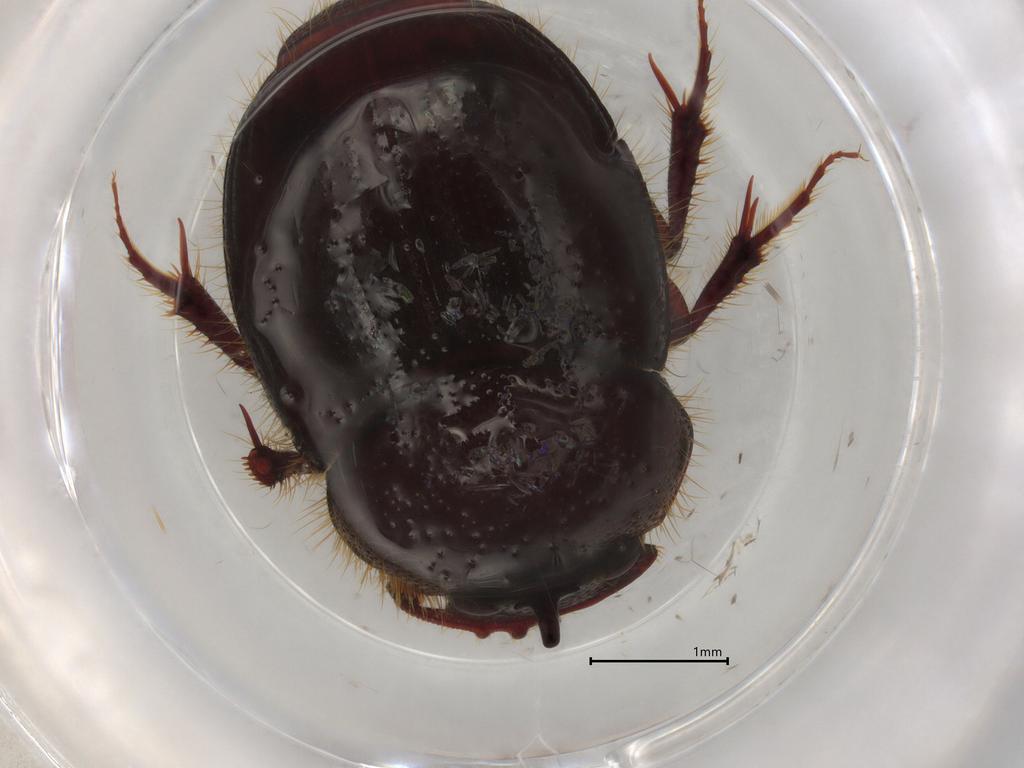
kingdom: Animalia
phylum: Arthropoda
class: Insecta
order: Coleoptera
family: Scarabaeidae
